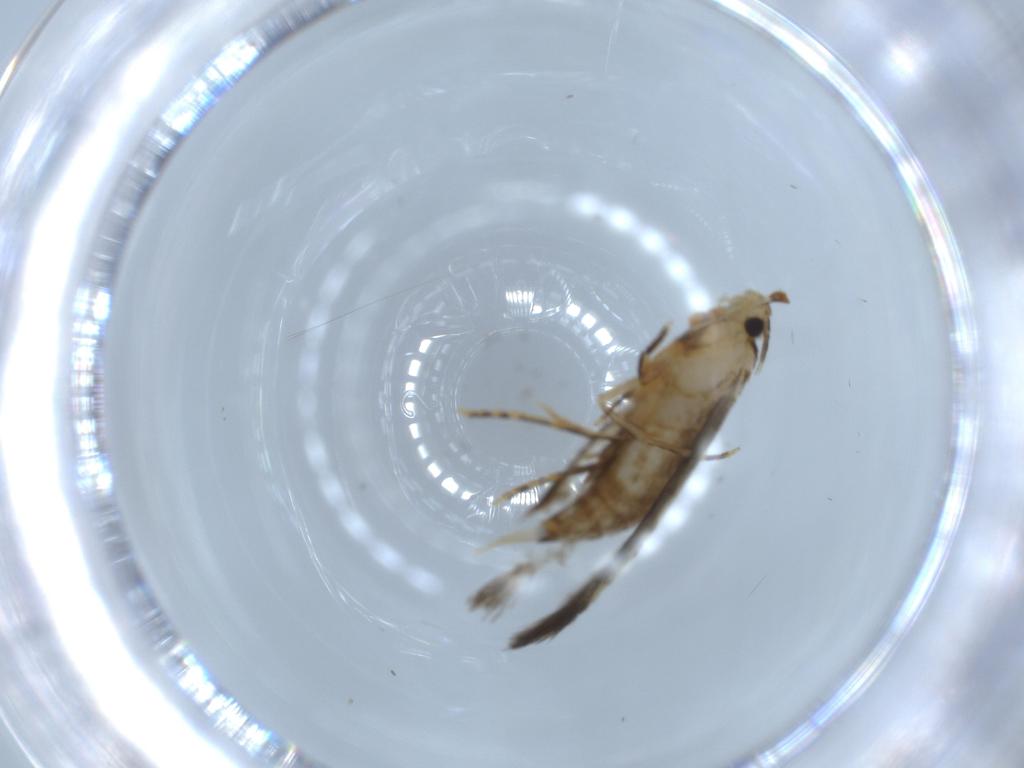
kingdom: Animalia
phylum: Arthropoda
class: Insecta
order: Lepidoptera
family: Tineidae
